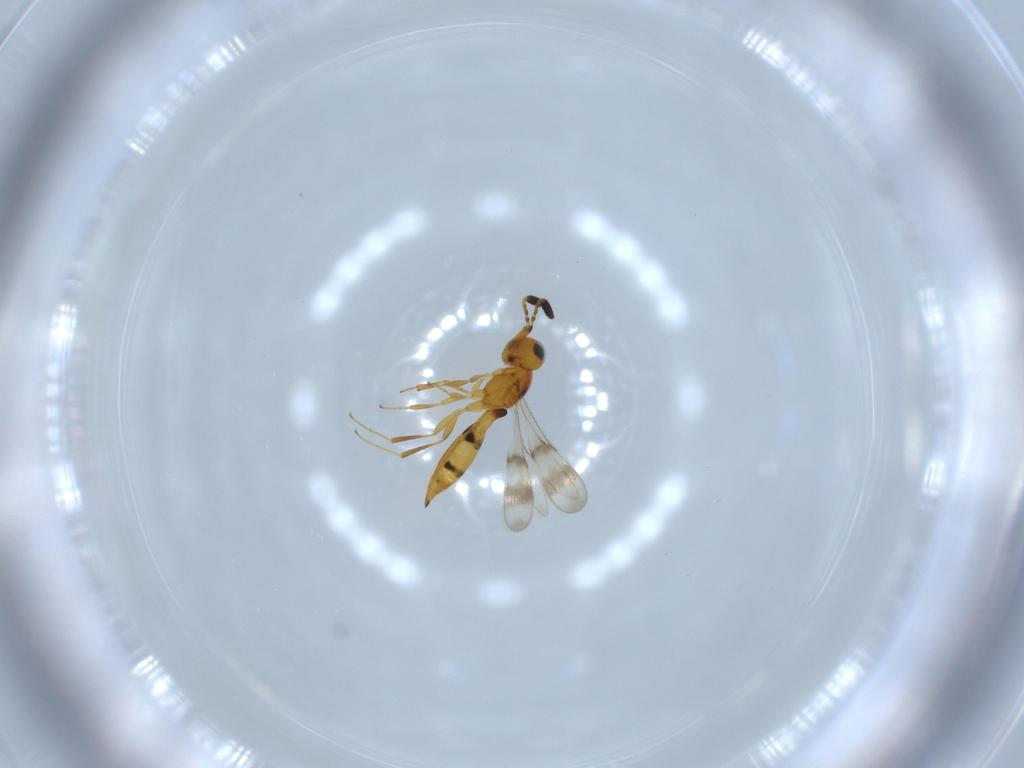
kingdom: Animalia
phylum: Arthropoda
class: Insecta
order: Hymenoptera
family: Scelionidae
